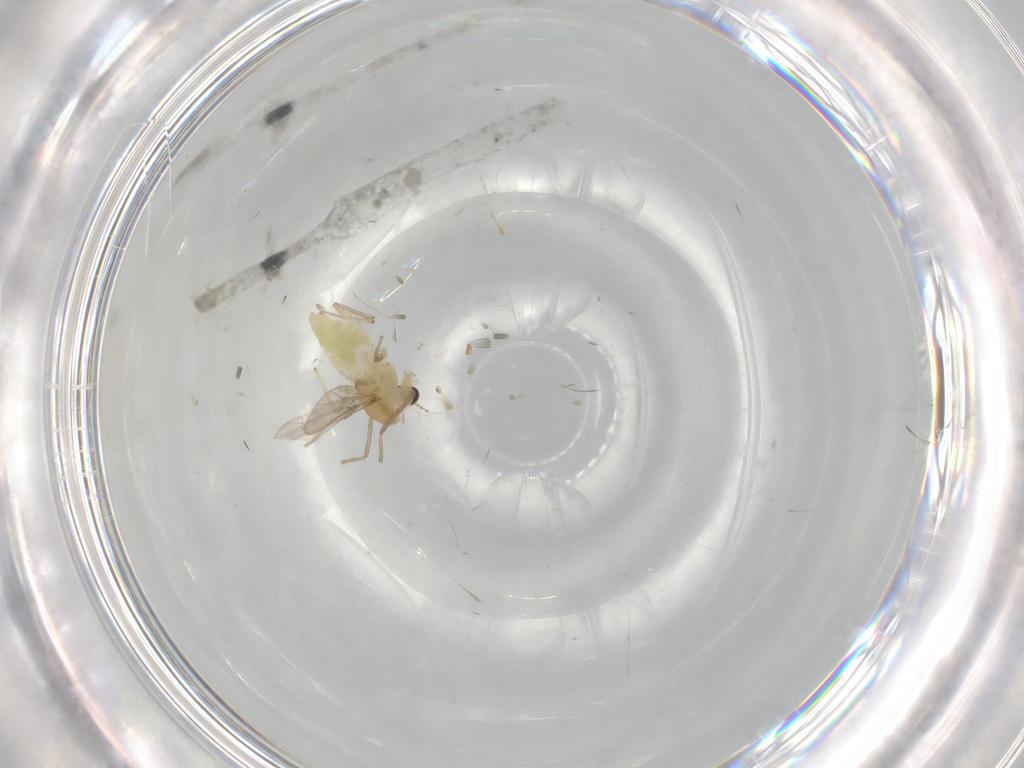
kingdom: Animalia
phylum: Arthropoda
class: Insecta
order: Diptera
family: Chironomidae
